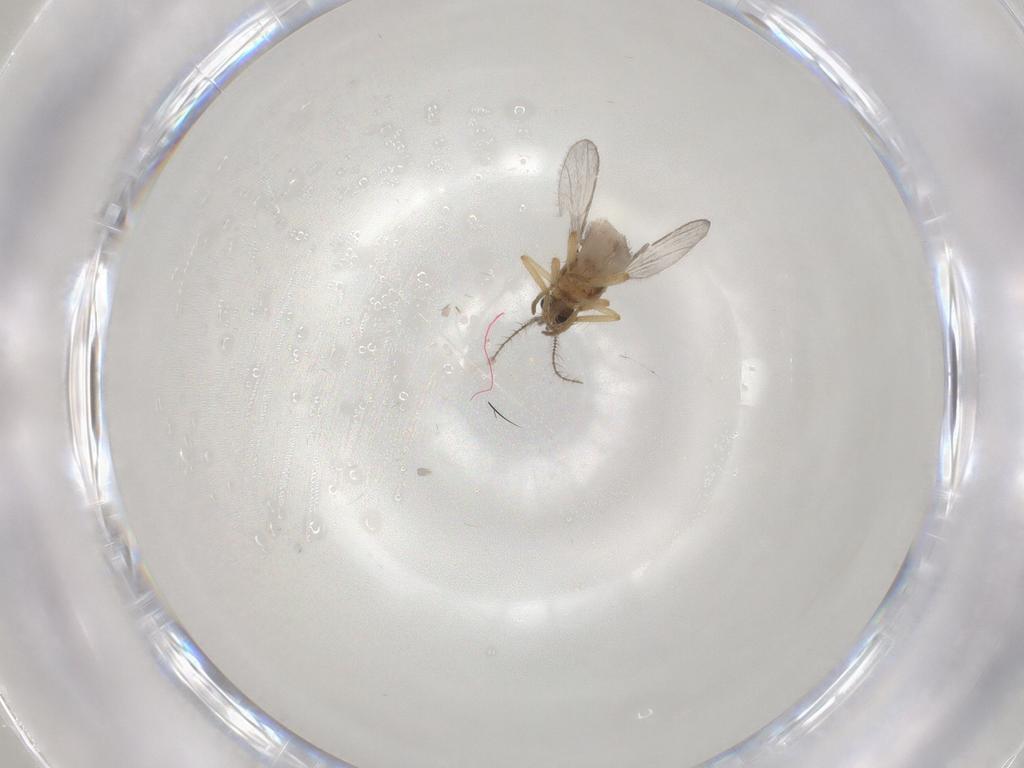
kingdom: Animalia
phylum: Arthropoda
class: Insecta
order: Diptera
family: Ceratopogonidae
